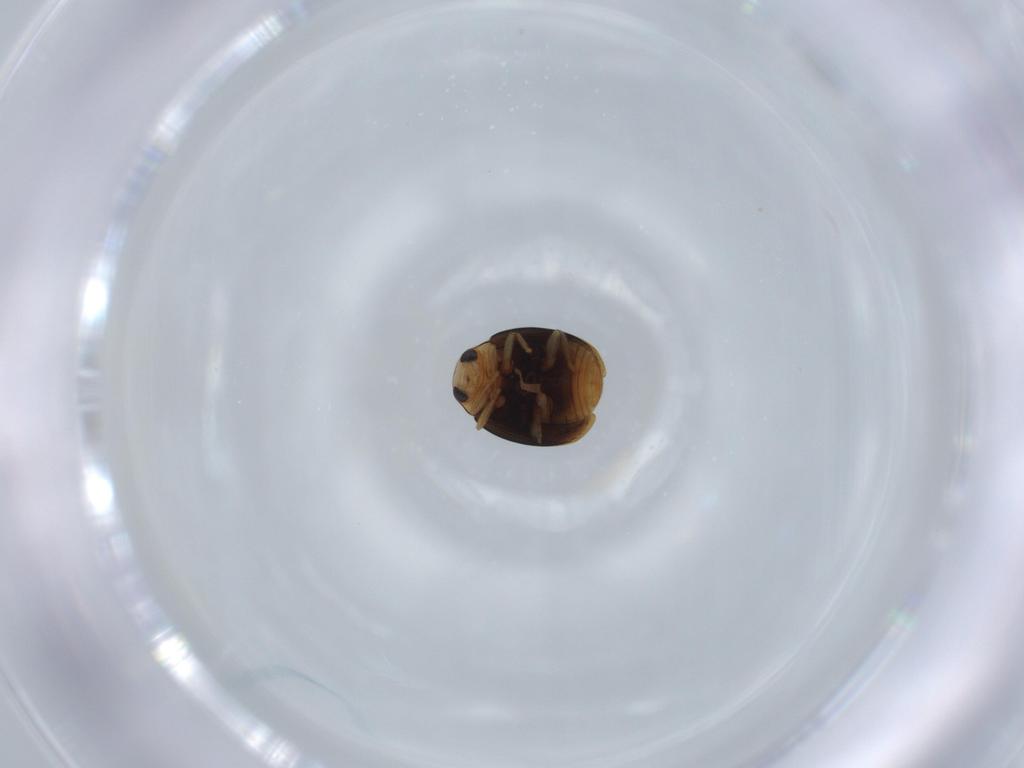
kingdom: Animalia
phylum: Arthropoda
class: Insecta
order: Coleoptera
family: Coccinellidae
